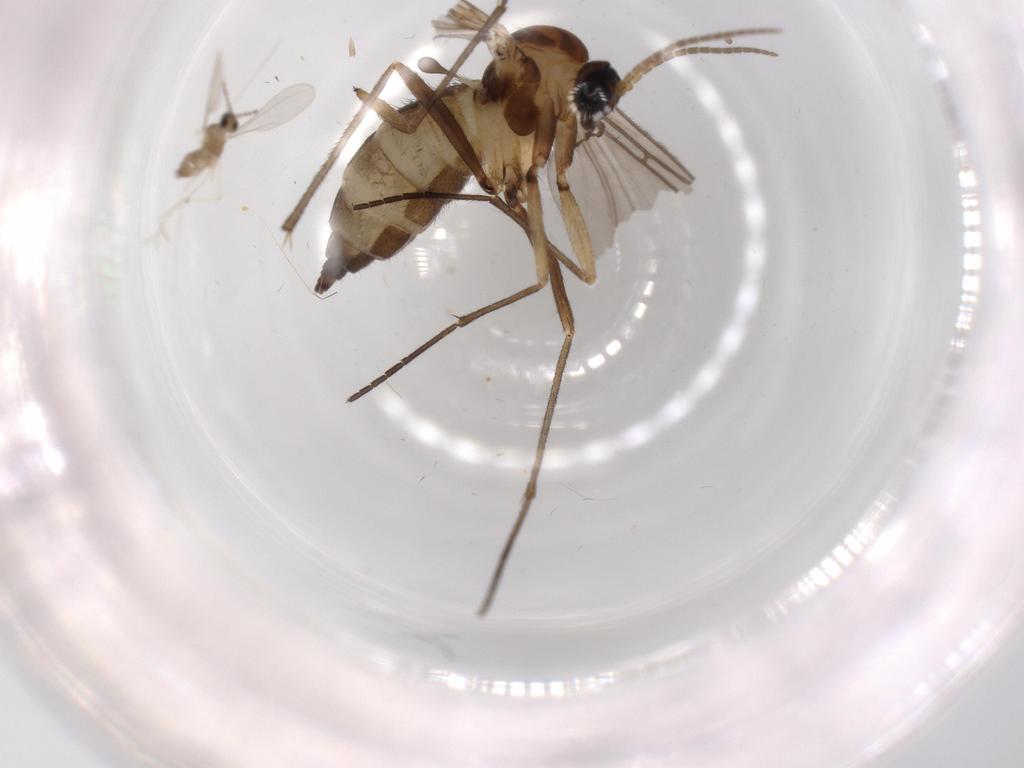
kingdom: Animalia
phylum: Arthropoda
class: Insecta
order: Diptera
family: Sciaridae
